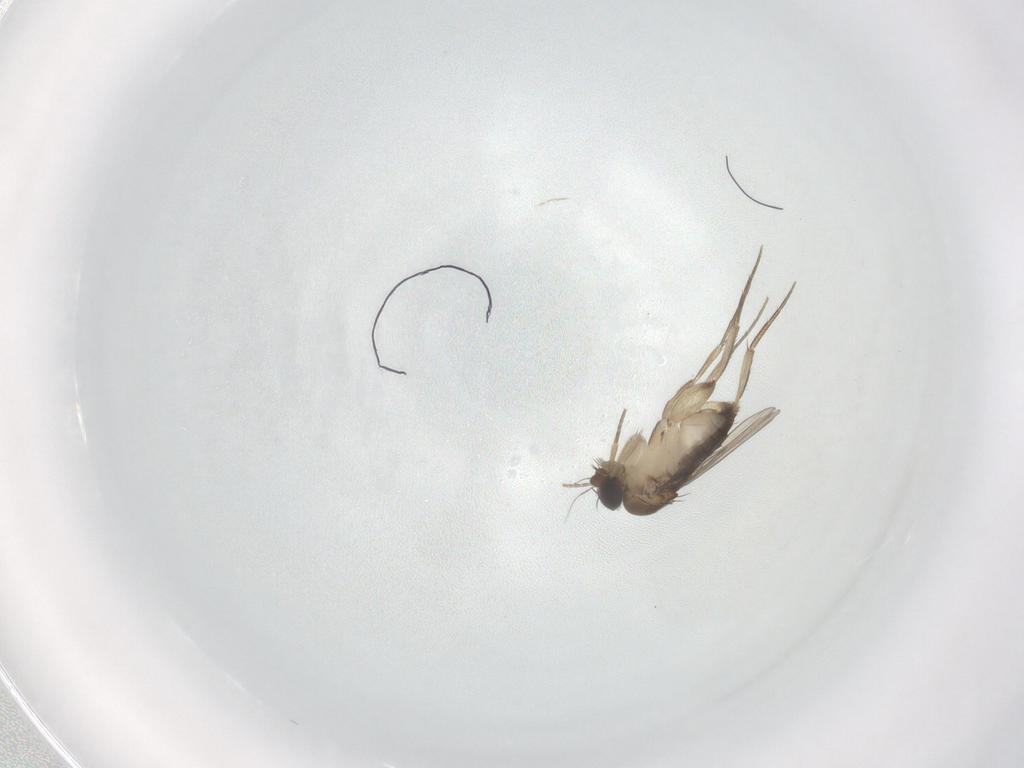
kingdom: Animalia
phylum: Arthropoda
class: Insecta
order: Diptera
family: Phoridae
